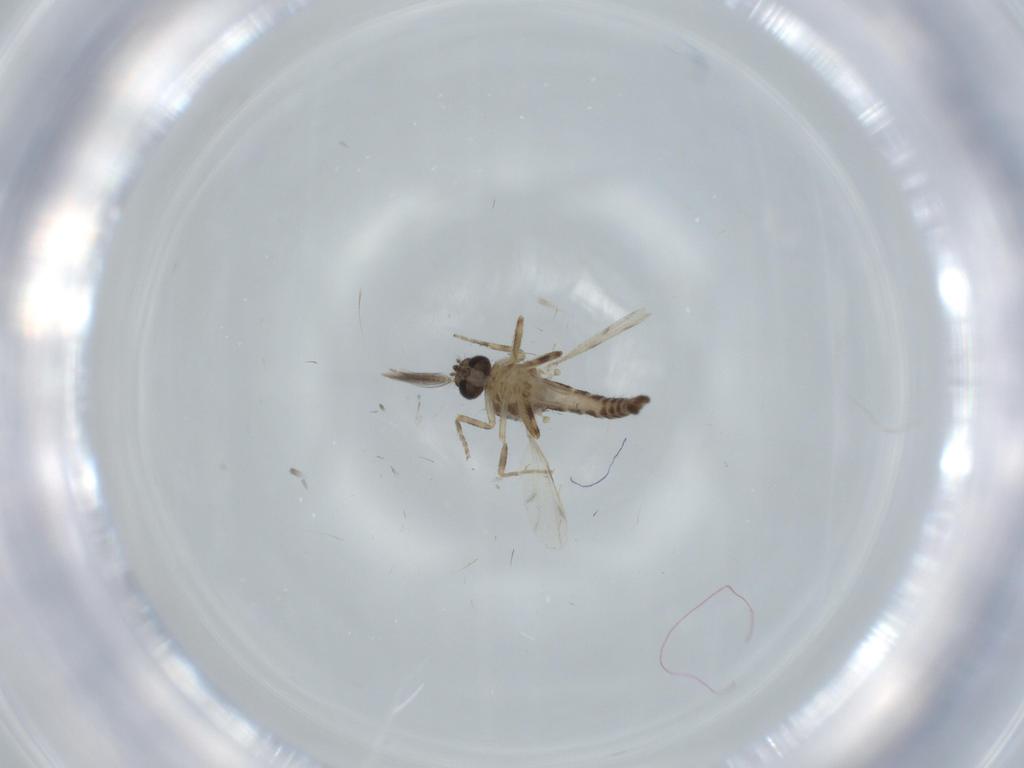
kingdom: Animalia
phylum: Arthropoda
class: Insecta
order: Diptera
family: Ceratopogonidae
